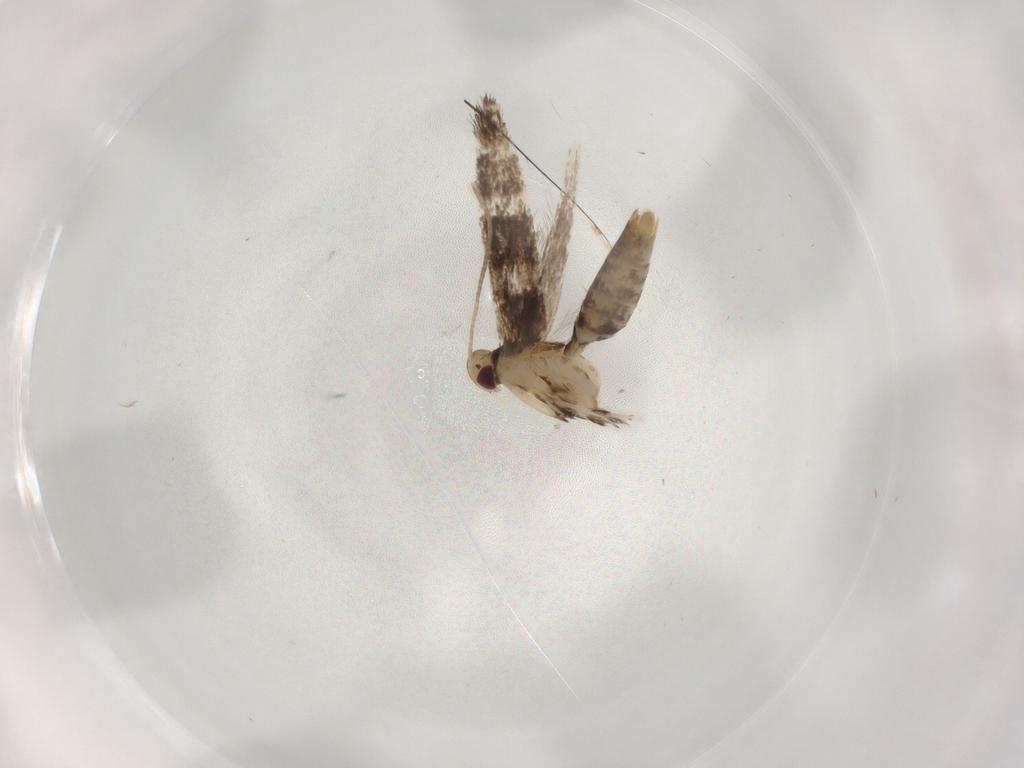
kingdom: Animalia
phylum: Arthropoda
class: Insecta
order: Lepidoptera
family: Gracillariidae
